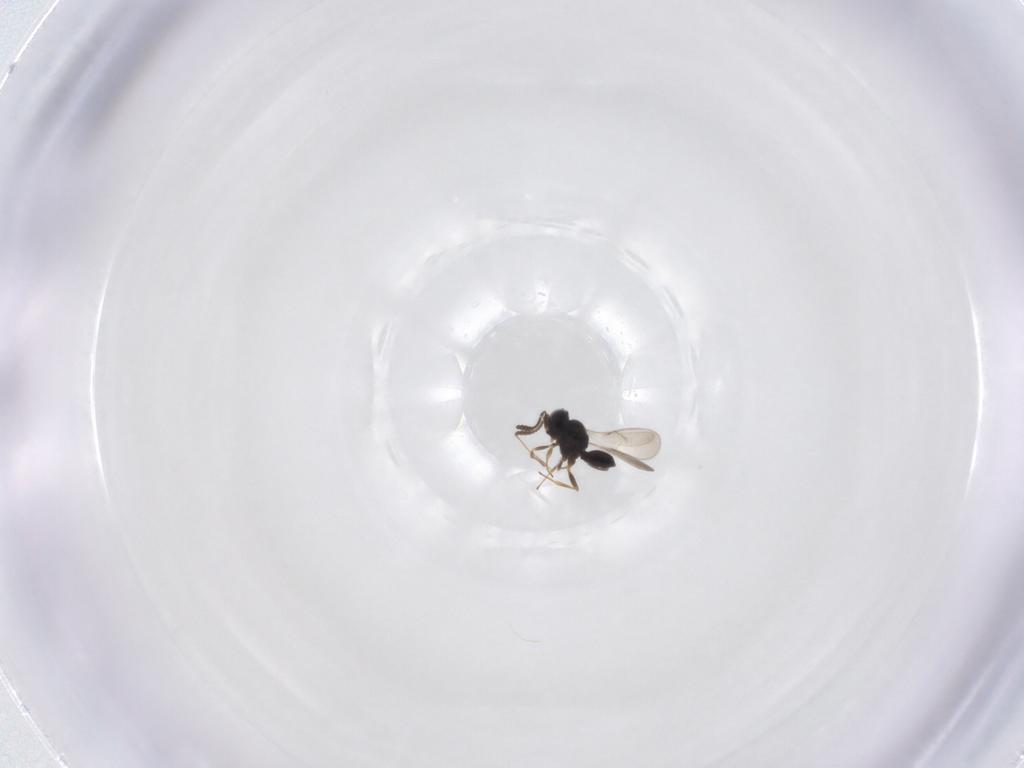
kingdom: Animalia
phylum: Arthropoda
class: Insecta
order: Hymenoptera
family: Scelionidae
